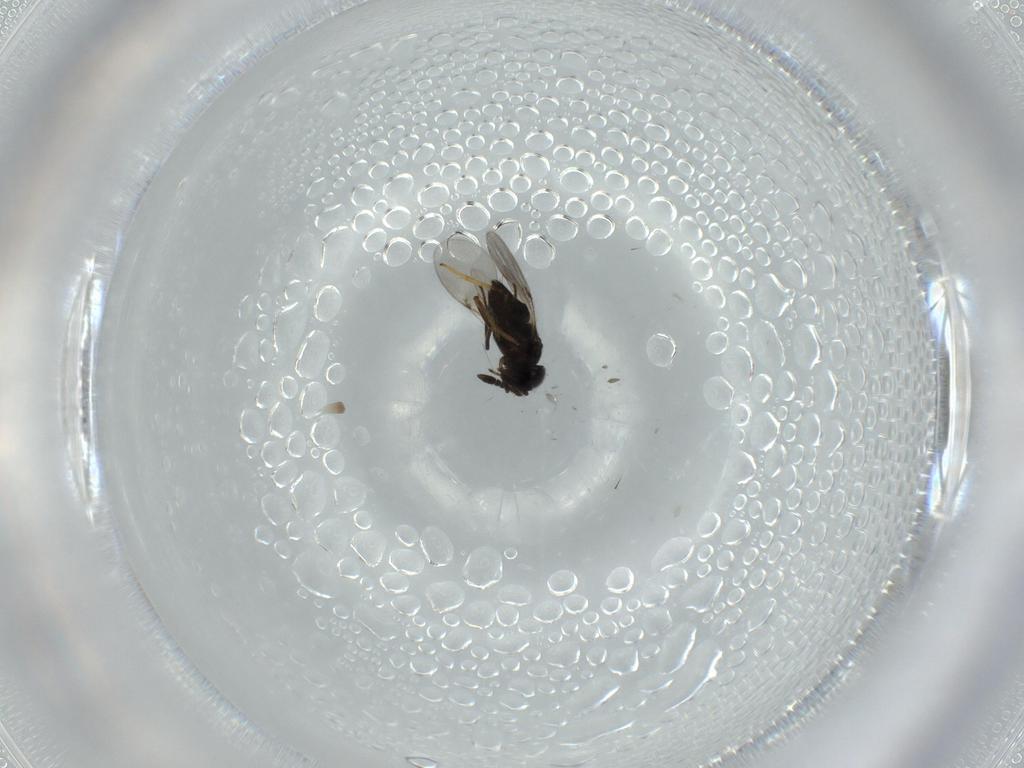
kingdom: Animalia
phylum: Arthropoda
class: Insecta
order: Hymenoptera
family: Encyrtidae
